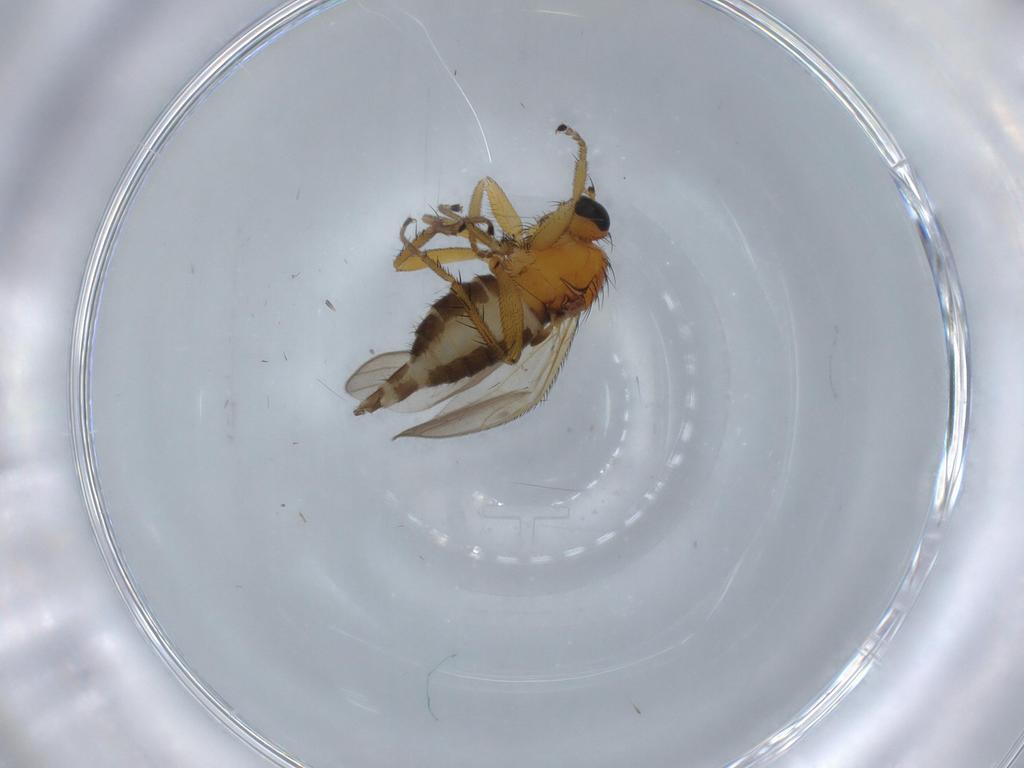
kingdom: Animalia
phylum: Arthropoda
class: Insecta
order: Diptera
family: Hybotidae
